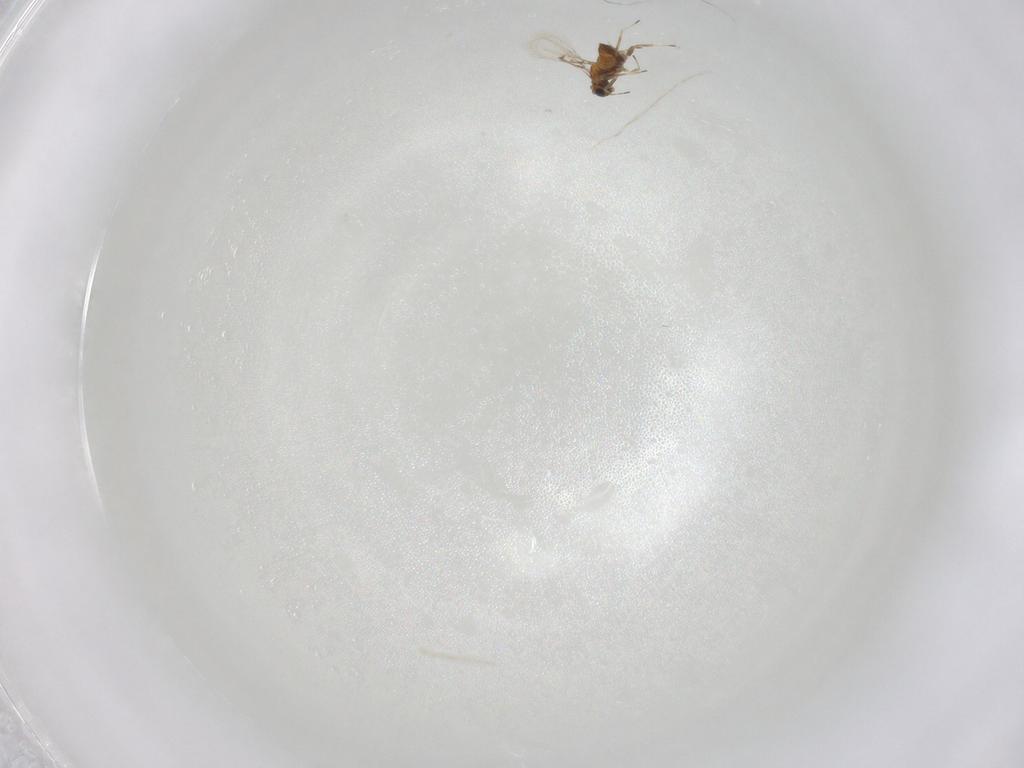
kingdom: Animalia
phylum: Arthropoda
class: Insecta
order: Hymenoptera
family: Trichogrammatidae
